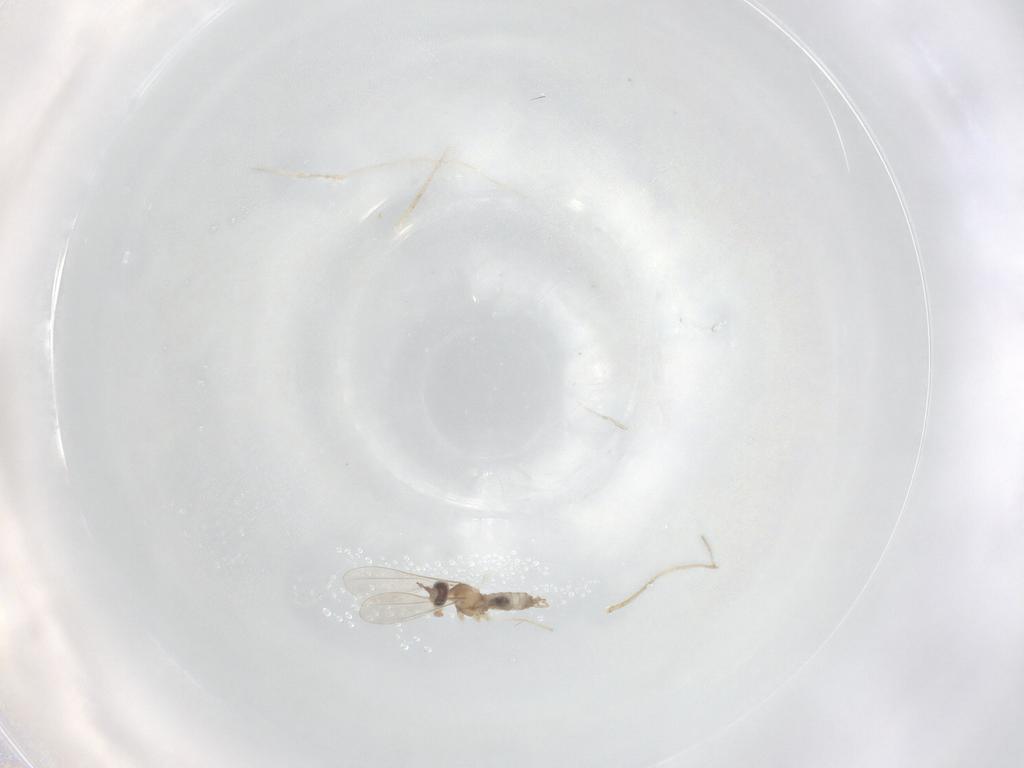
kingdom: Animalia
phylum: Arthropoda
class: Insecta
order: Diptera
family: Cecidomyiidae
